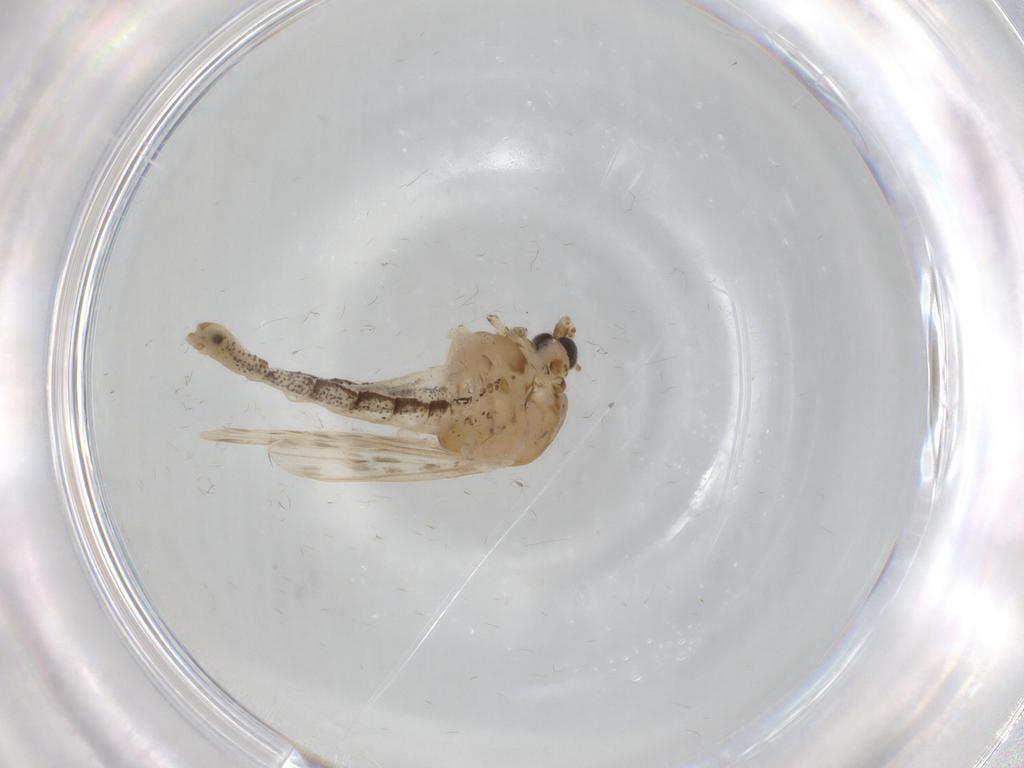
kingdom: Animalia
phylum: Arthropoda
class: Insecta
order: Diptera
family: Chaoboridae
